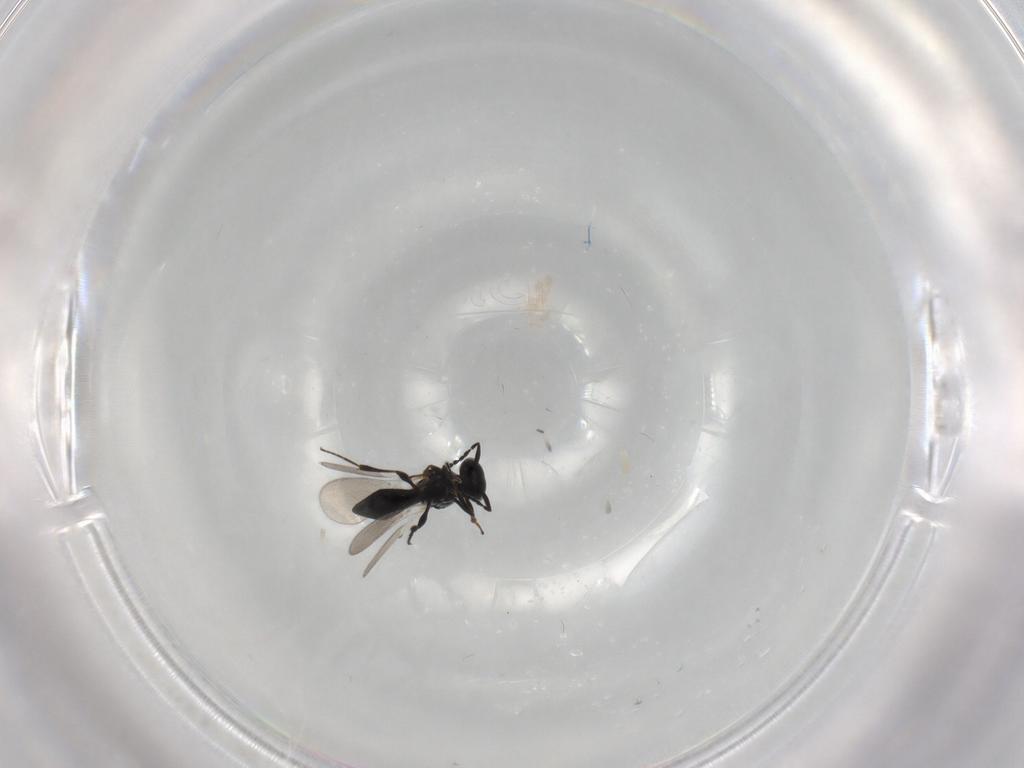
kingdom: Animalia
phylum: Arthropoda
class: Insecta
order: Hymenoptera
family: Platygastridae
